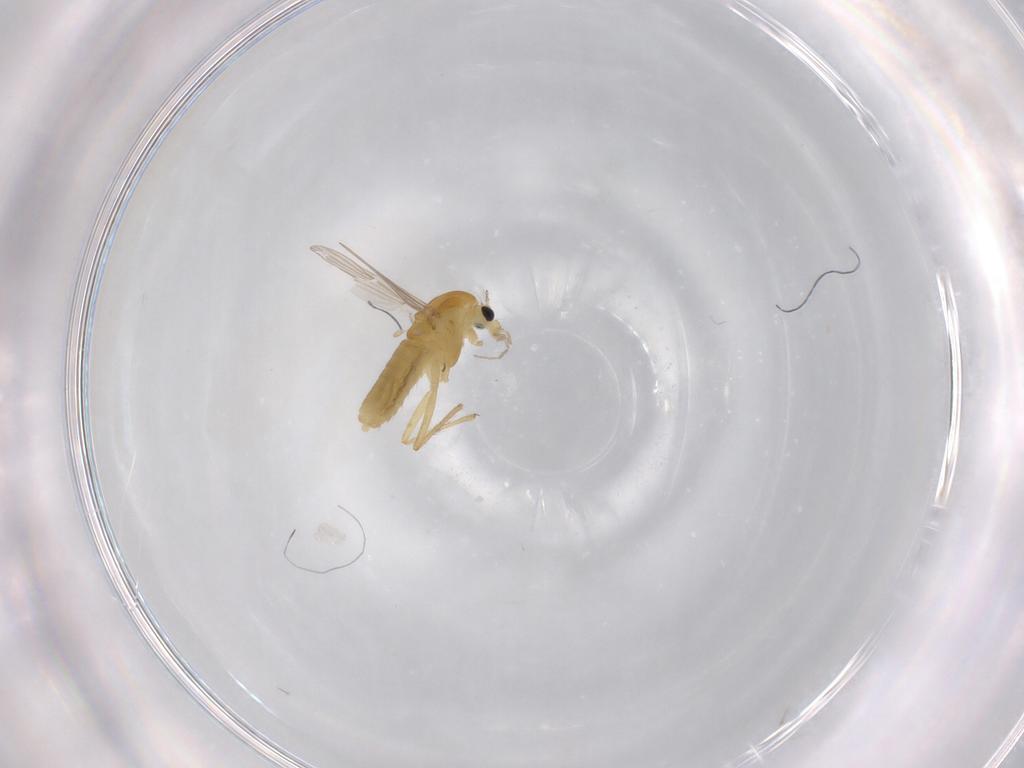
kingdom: Animalia
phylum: Arthropoda
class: Insecta
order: Diptera
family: Chironomidae
